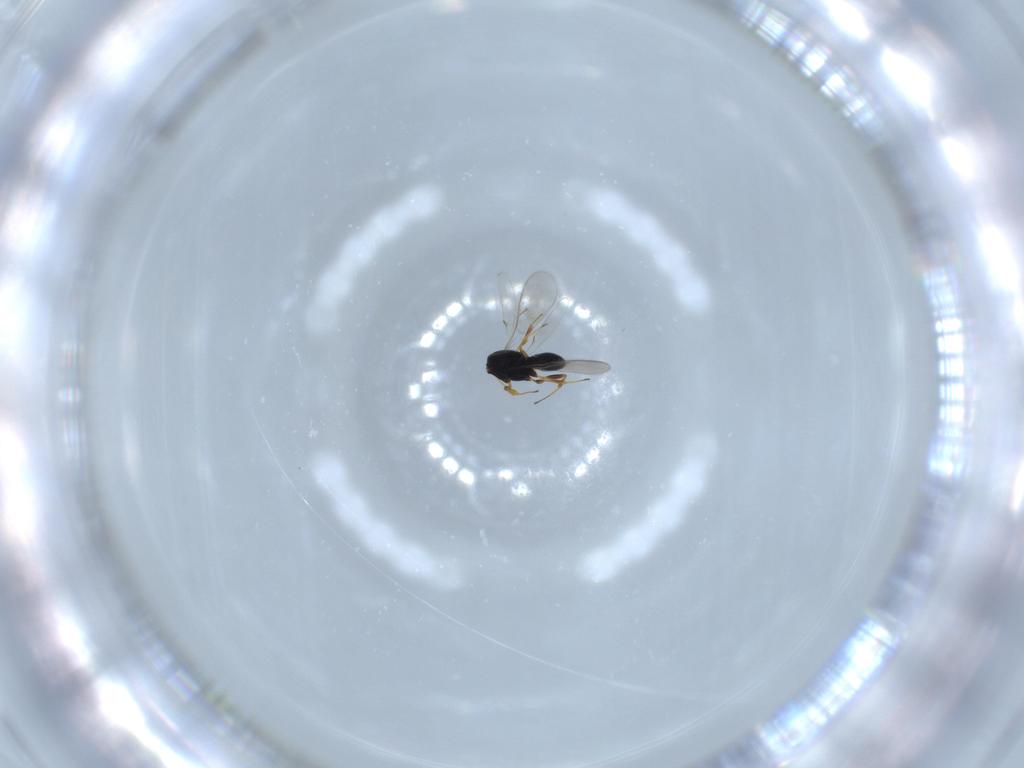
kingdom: Animalia
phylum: Arthropoda
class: Insecta
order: Hymenoptera
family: Scelionidae
